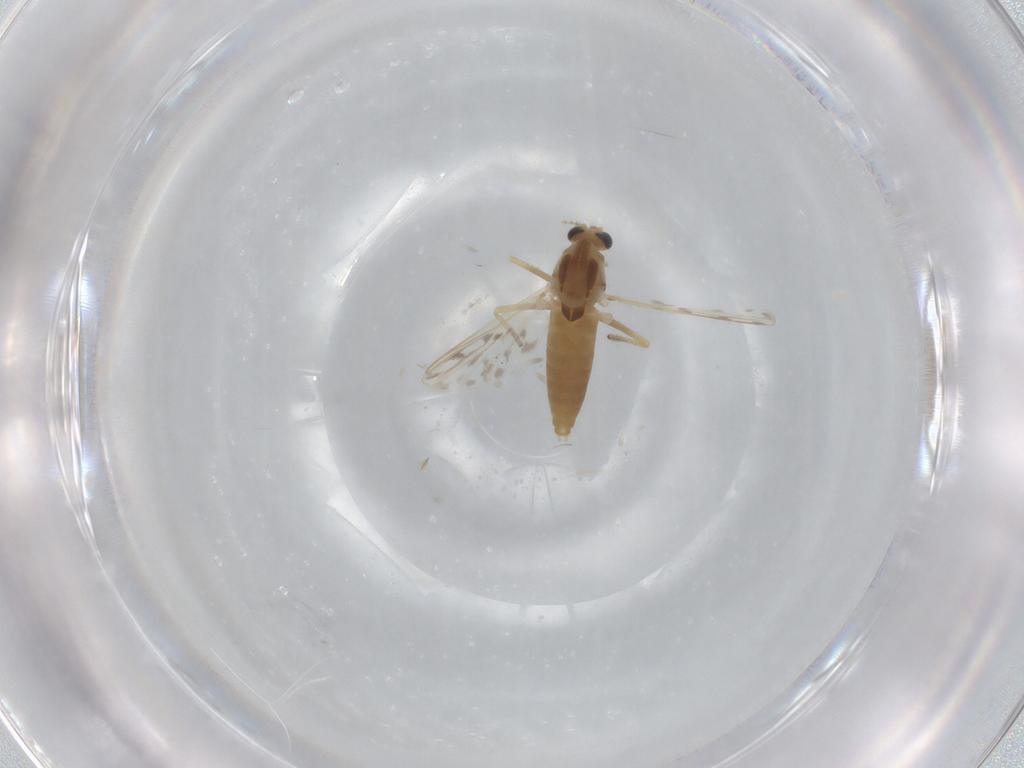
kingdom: Animalia
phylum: Arthropoda
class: Insecta
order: Diptera
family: Chironomidae
